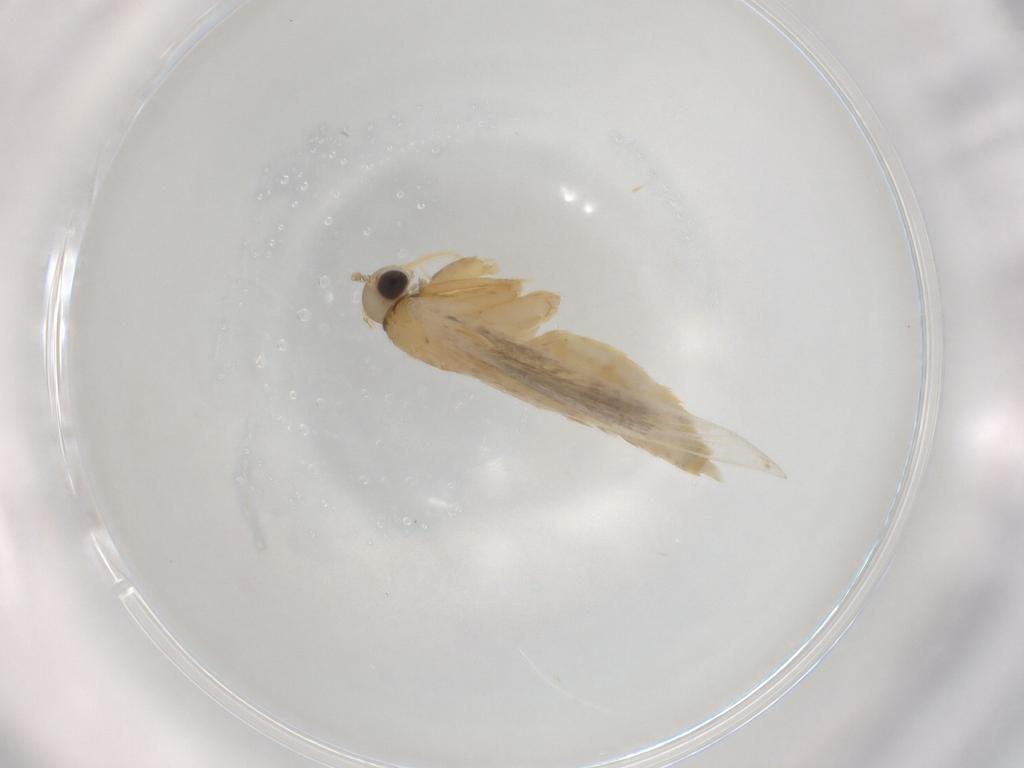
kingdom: Animalia
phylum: Arthropoda
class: Insecta
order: Lepidoptera
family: Autostichidae
